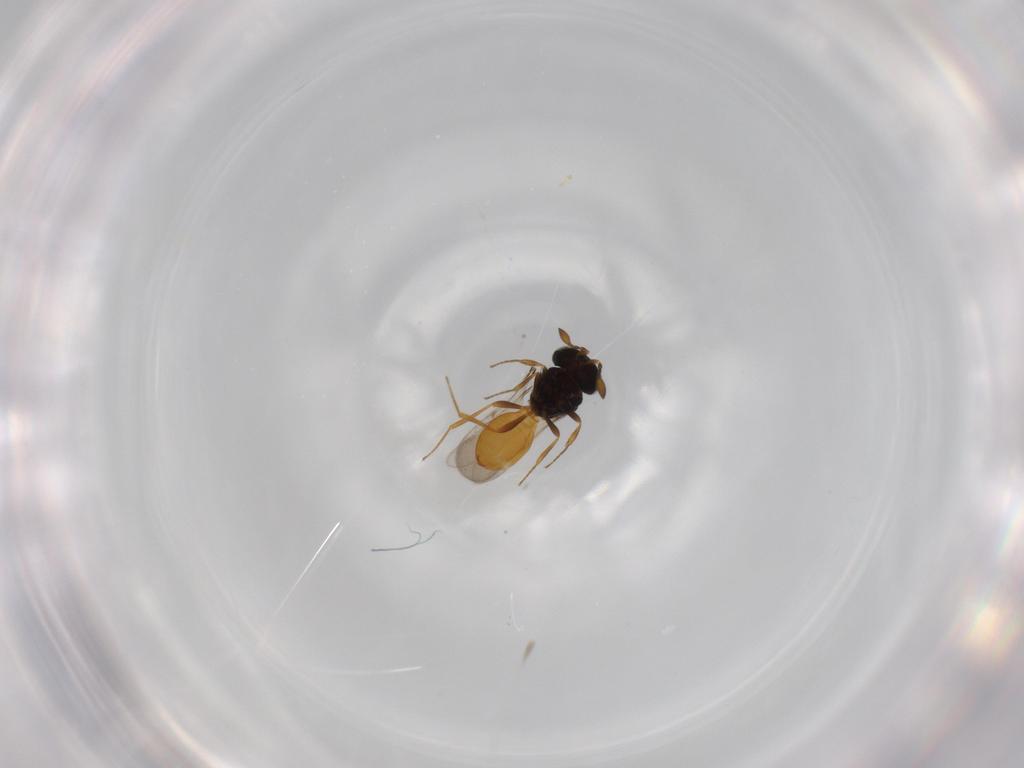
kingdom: Animalia
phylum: Arthropoda
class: Insecta
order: Hymenoptera
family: Scelionidae
